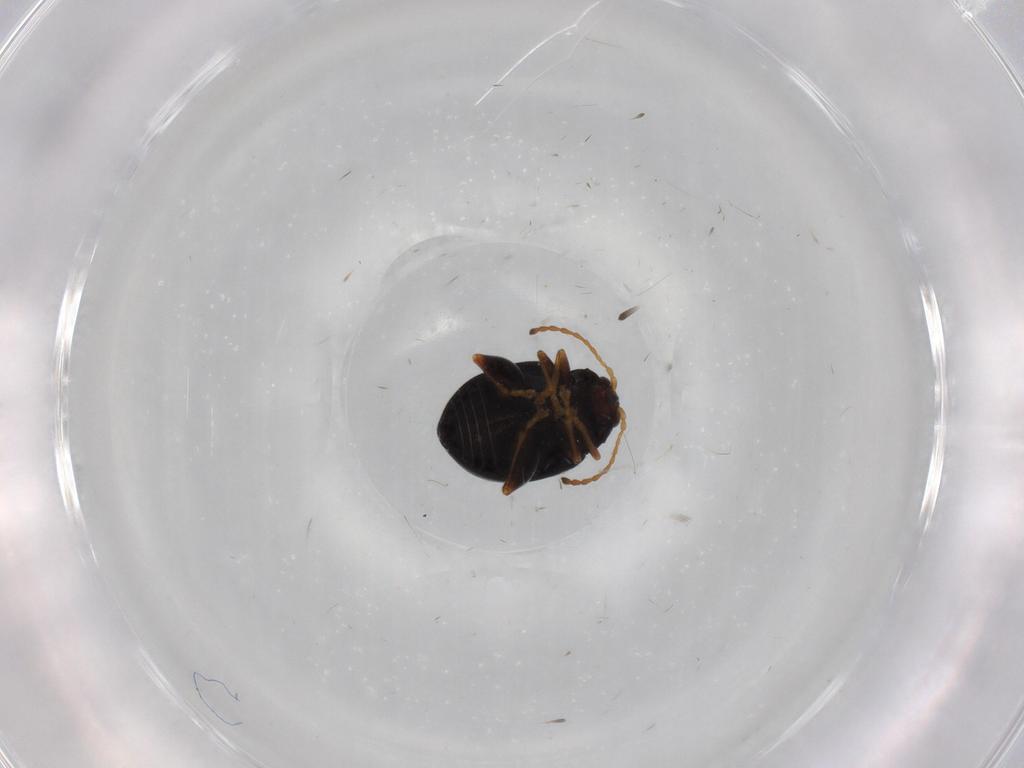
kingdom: Animalia
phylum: Arthropoda
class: Insecta
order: Coleoptera
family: Chrysomelidae
